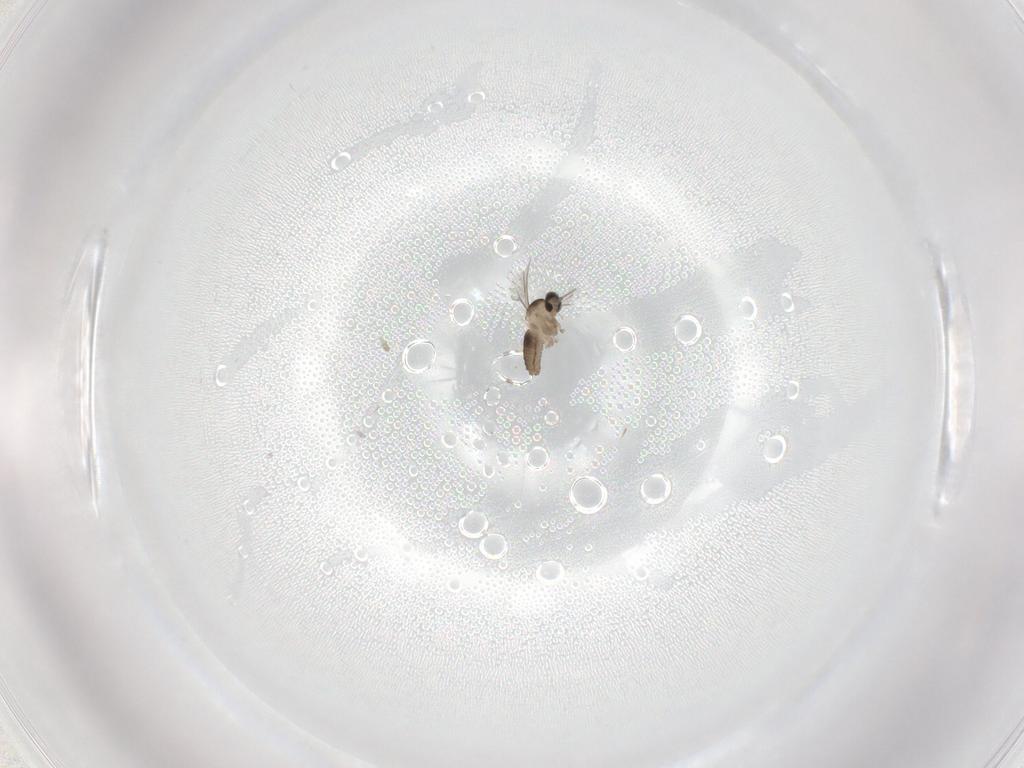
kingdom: Animalia
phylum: Arthropoda
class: Insecta
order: Diptera
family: Cecidomyiidae
